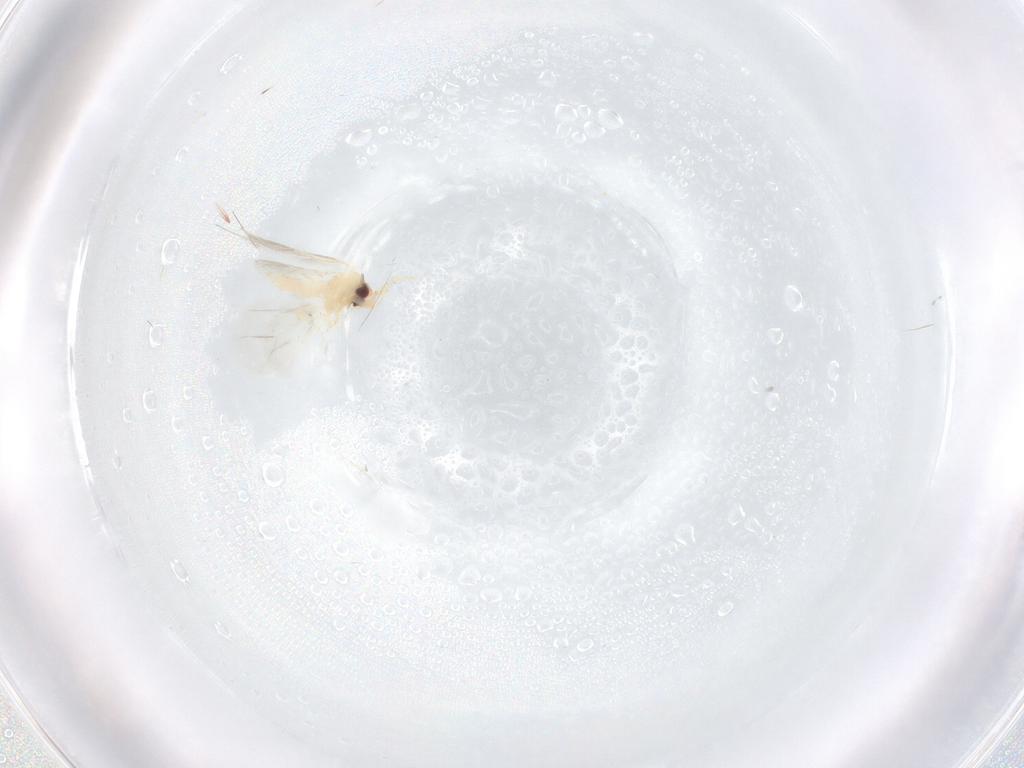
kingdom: Animalia
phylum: Arthropoda
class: Insecta
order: Hemiptera
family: Aleyrodidae
